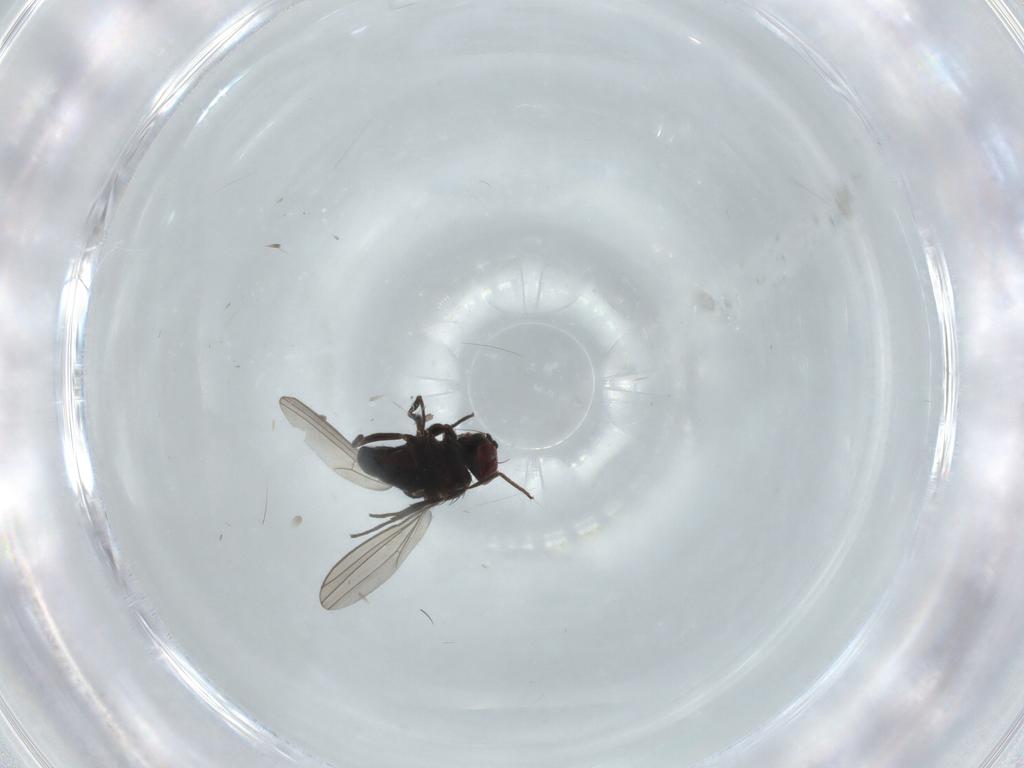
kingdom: Animalia
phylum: Arthropoda
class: Insecta
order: Diptera
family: Dolichopodidae
